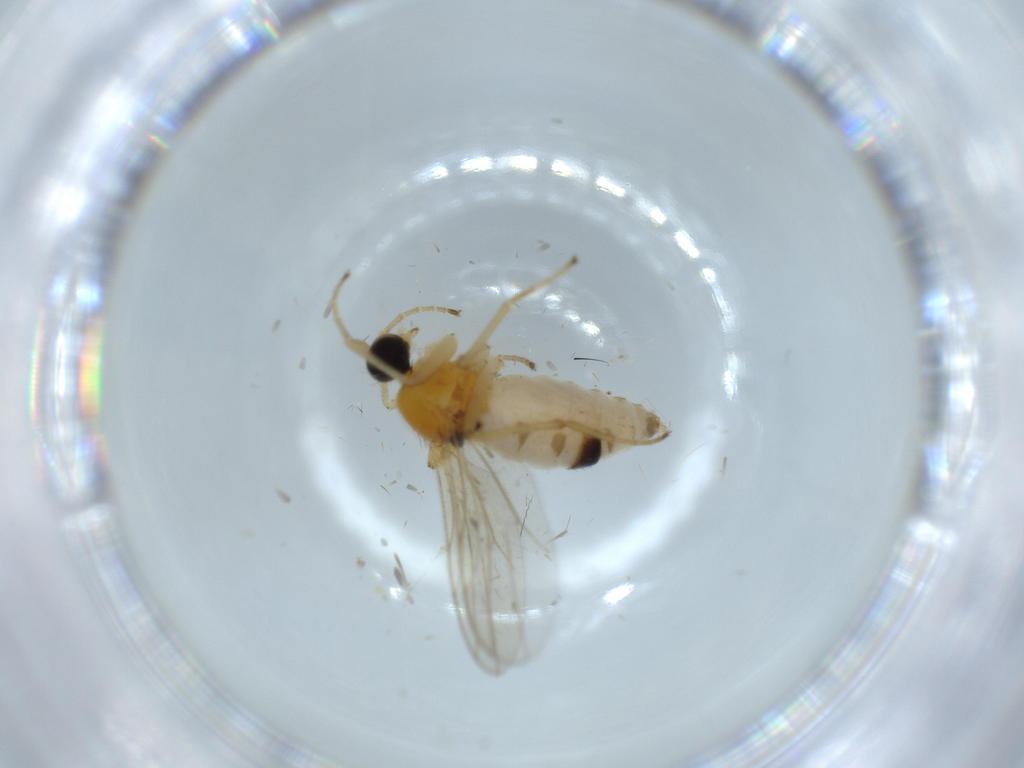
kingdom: Animalia
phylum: Arthropoda
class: Insecta
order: Diptera
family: Hybotidae
